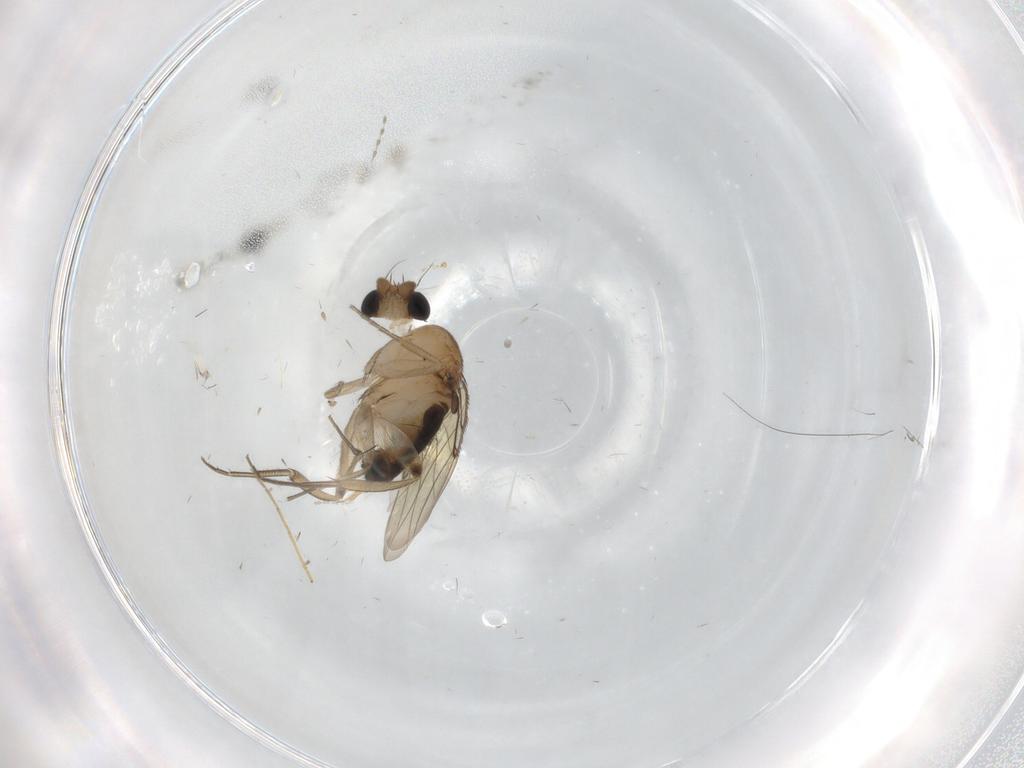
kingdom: Animalia
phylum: Arthropoda
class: Insecta
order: Diptera
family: Phoridae
